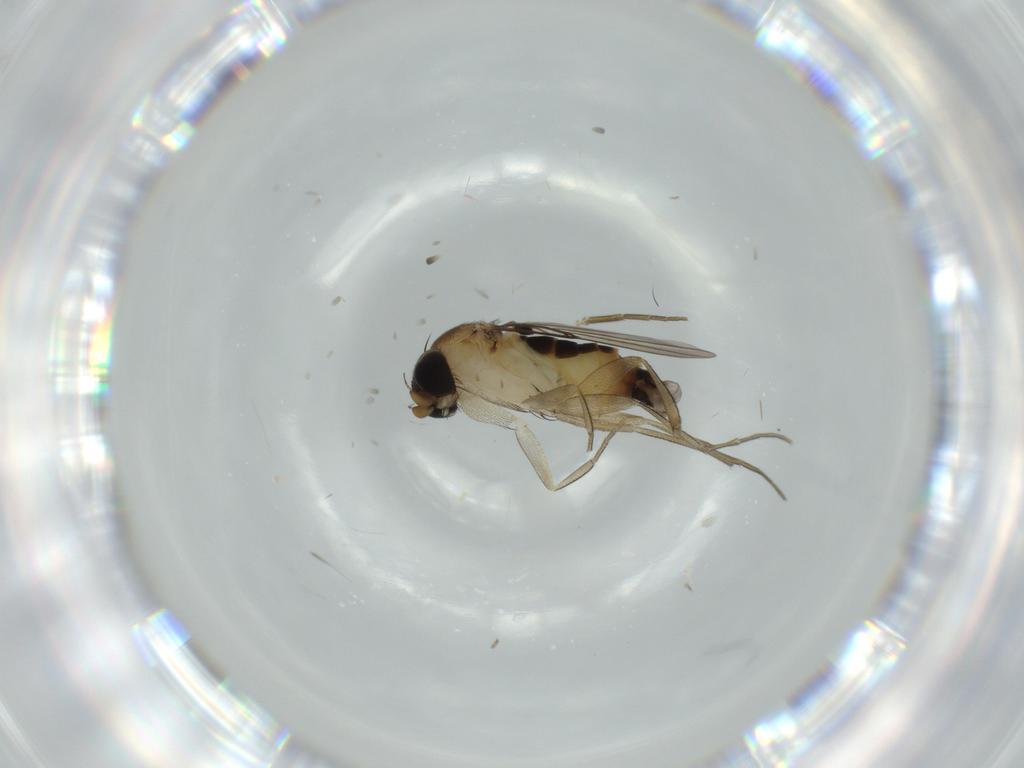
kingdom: Animalia
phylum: Arthropoda
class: Insecta
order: Diptera
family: Phoridae
